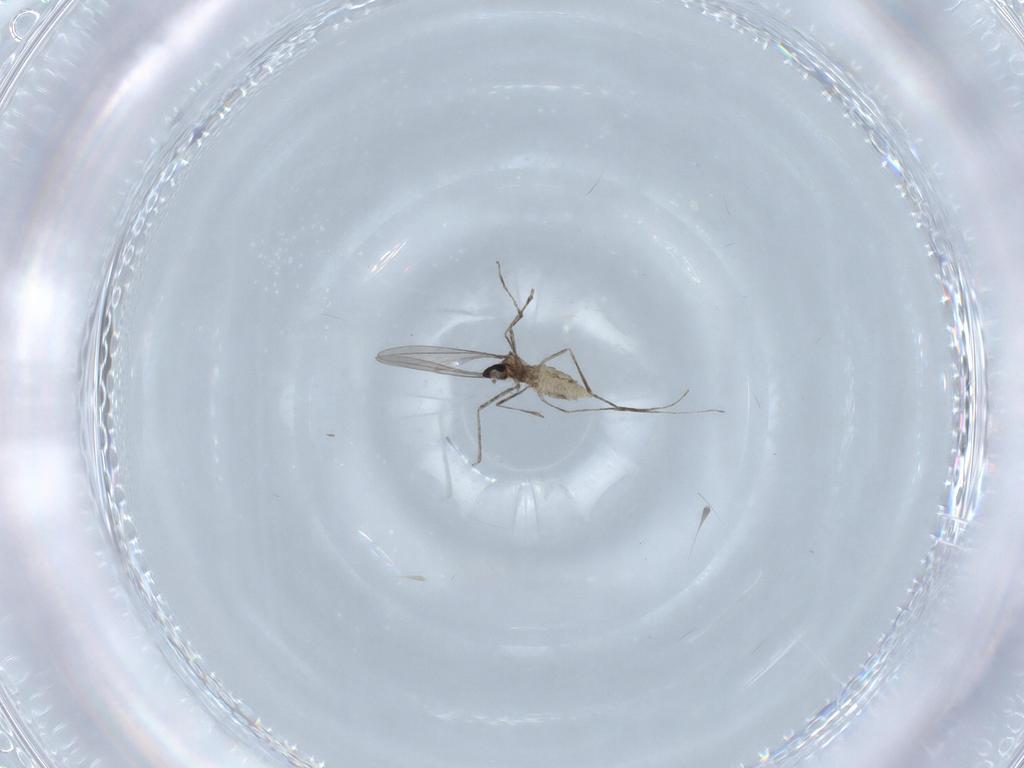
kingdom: Animalia
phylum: Arthropoda
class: Insecta
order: Diptera
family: Cecidomyiidae
